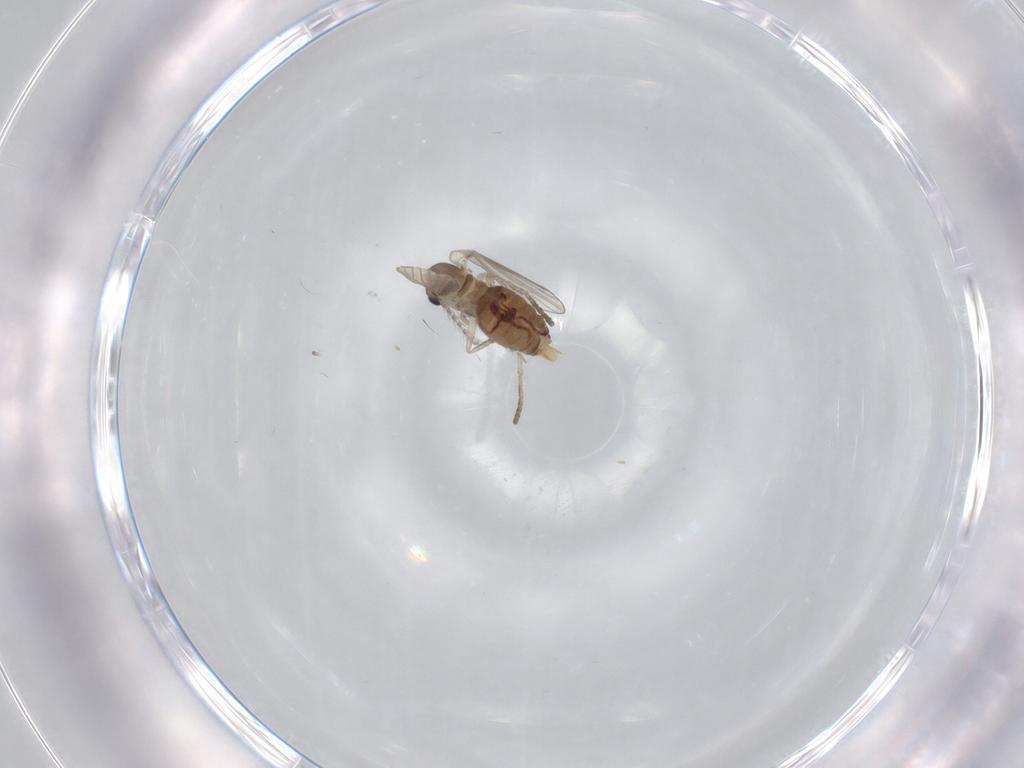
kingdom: Animalia
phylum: Arthropoda
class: Insecta
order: Diptera
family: Psychodidae
